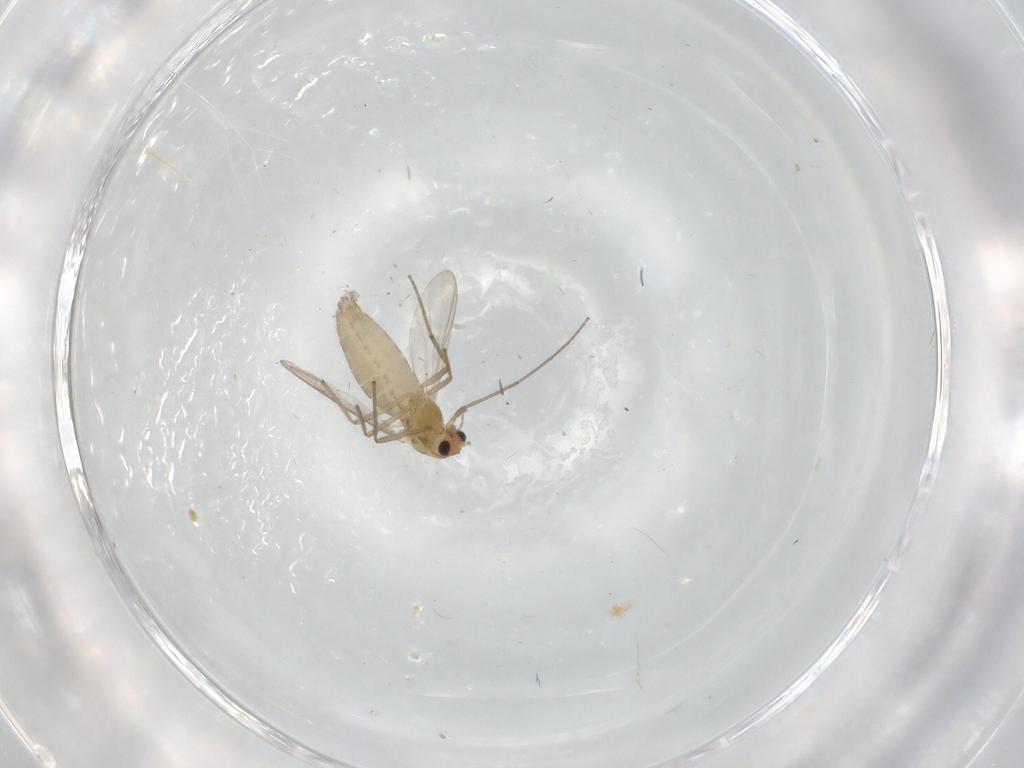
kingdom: Animalia
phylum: Arthropoda
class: Insecta
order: Diptera
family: Chironomidae
